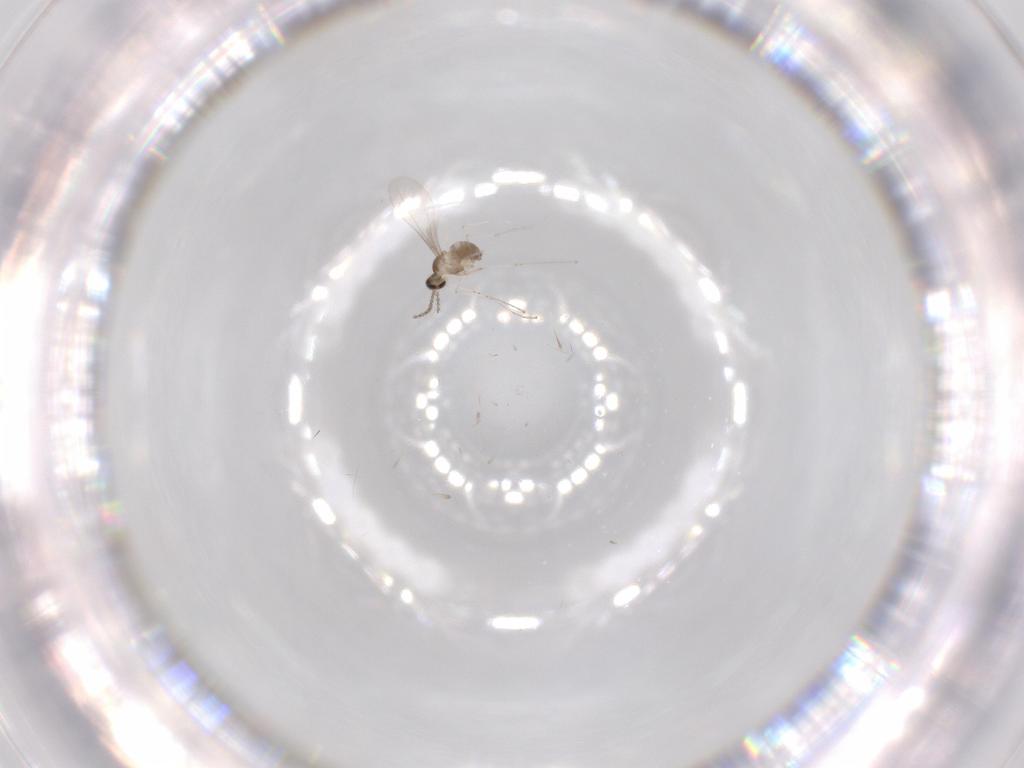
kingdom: Animalia
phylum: Arthropoda
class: Insecta
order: Diptera
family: Cecidomyiidae
